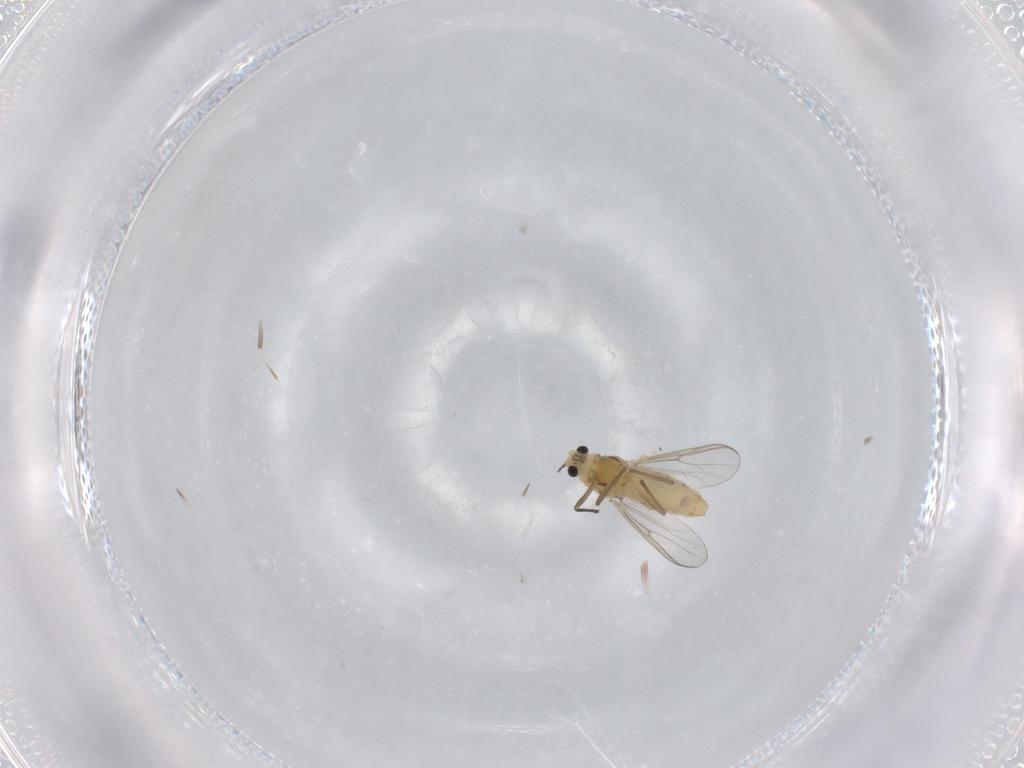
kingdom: Animalia
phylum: Arthropoda
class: Insecta
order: Diptera
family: Chironomidae
